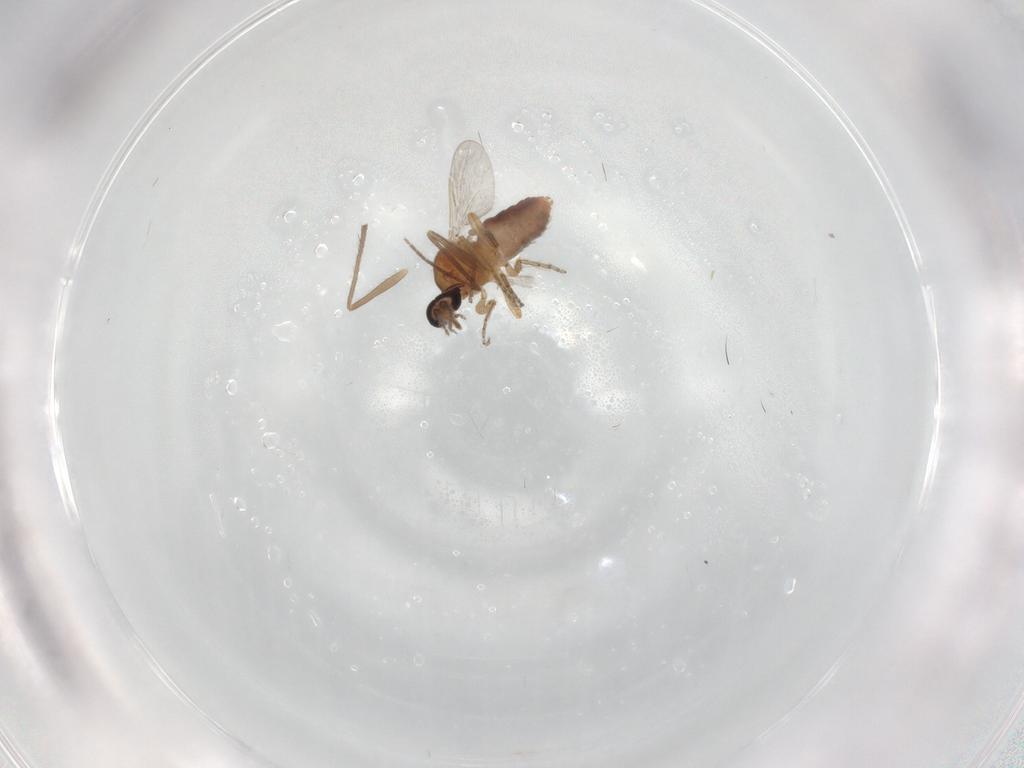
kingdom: Animalia
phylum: Arthropoda
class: Insecta
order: Diptera
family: Ceratopogonidae
